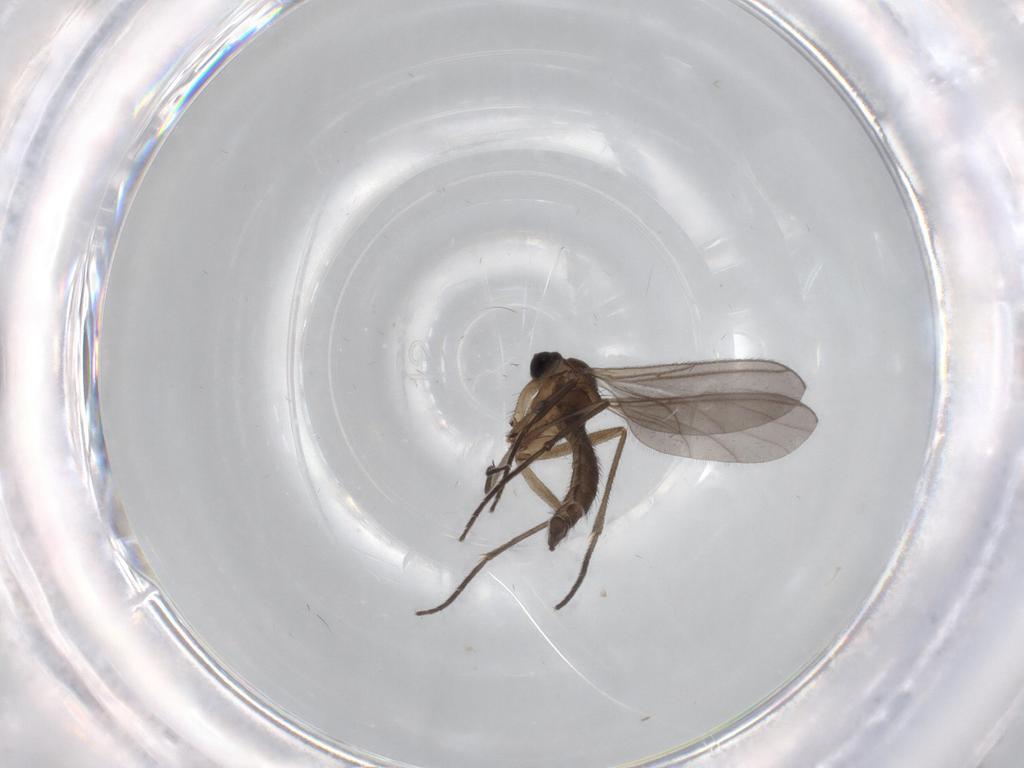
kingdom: Animalia
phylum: Arthropoda
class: Insecta
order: Diptera
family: Psychodidae
